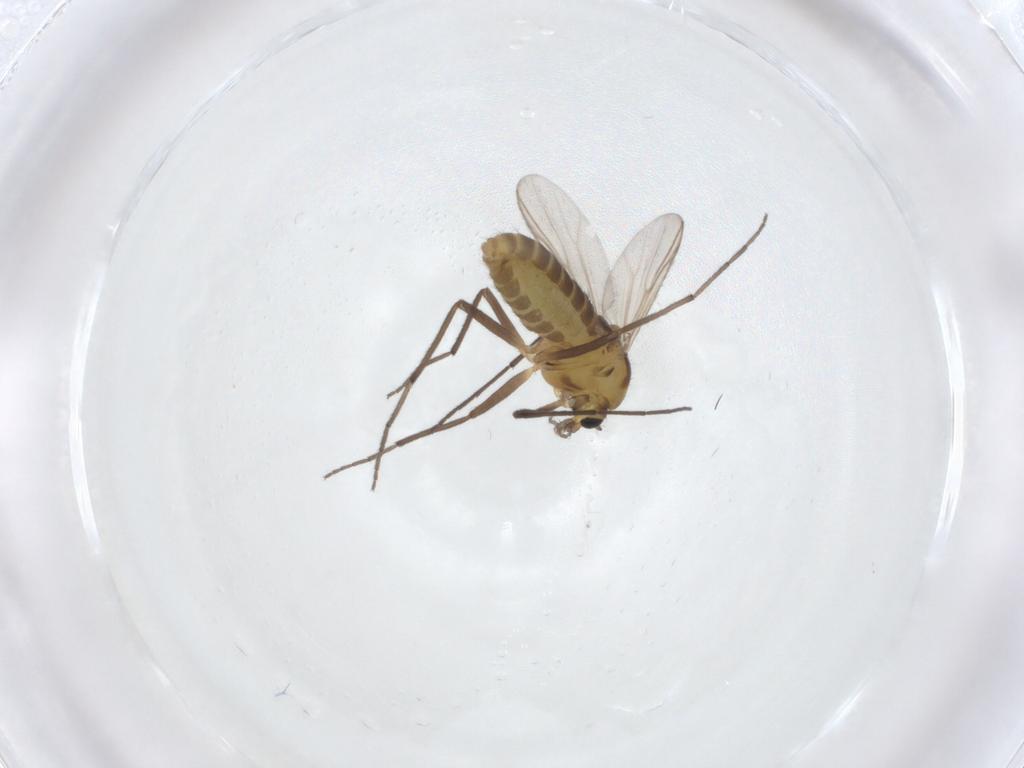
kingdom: Animalia
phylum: Arthropoda
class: Insecta
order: Diptera
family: Chironomidae
